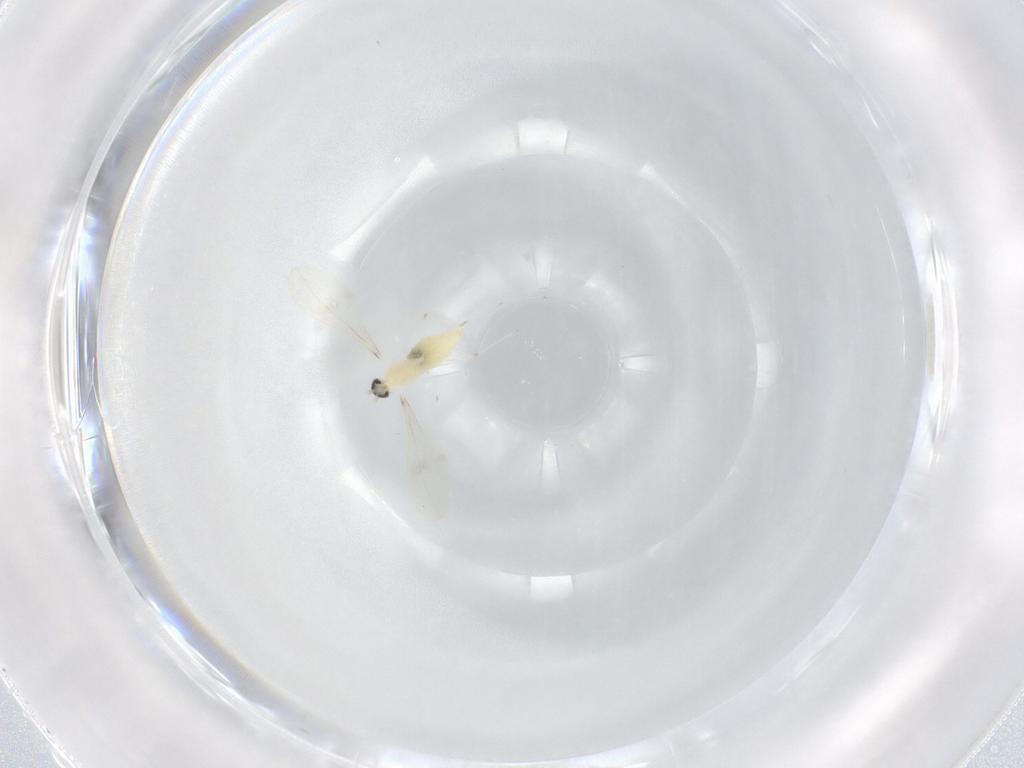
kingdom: Animalia
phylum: Arthropoda
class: Insecta
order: Diptera
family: Cecidomyiidae
